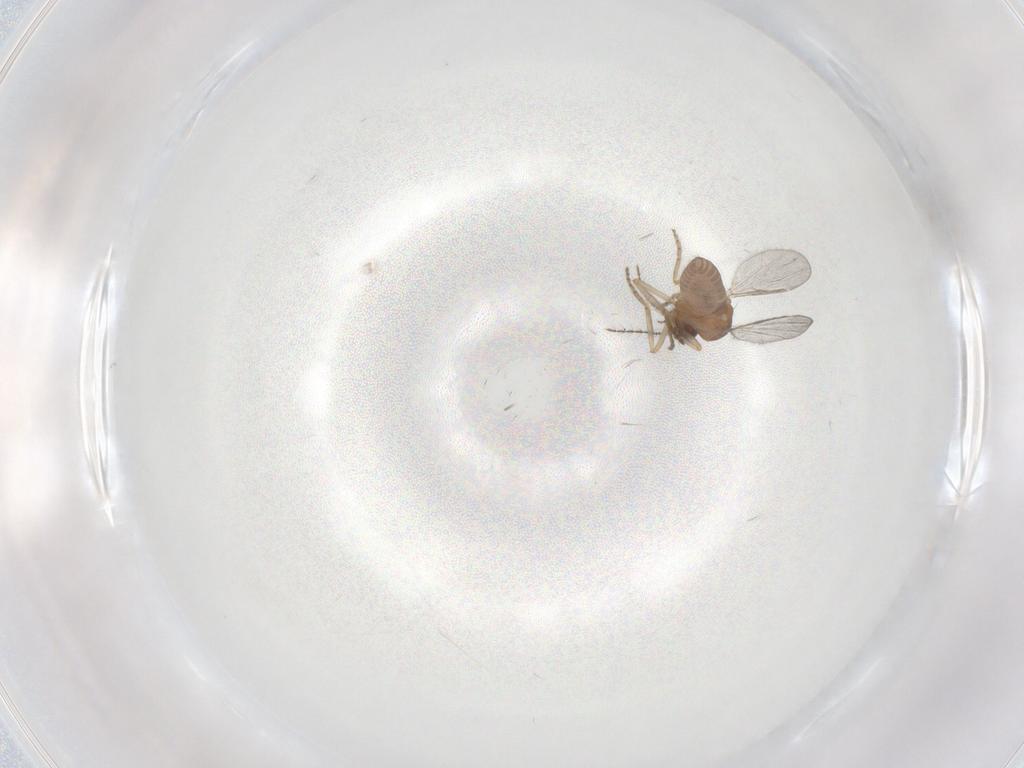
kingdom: Animalia
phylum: Arthropoda
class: Insecta
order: Diptera
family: Ceratopogonidae
